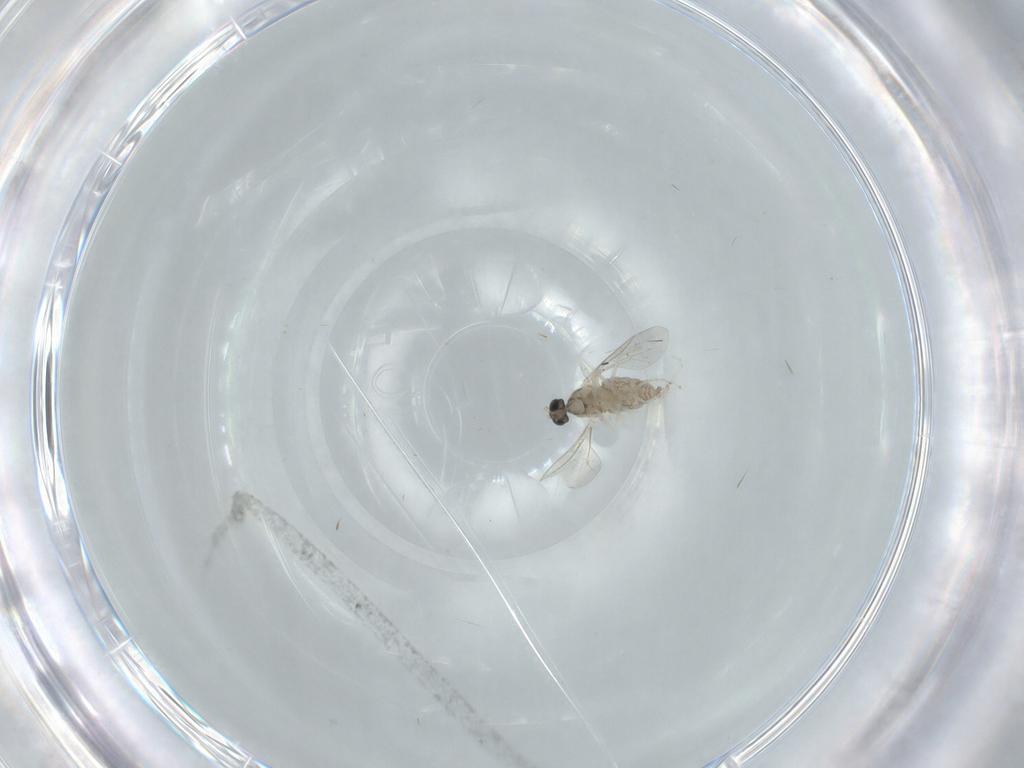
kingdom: Animalia
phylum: Arthropoda
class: Insecta
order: Diptera
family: Cecidomyiidae
